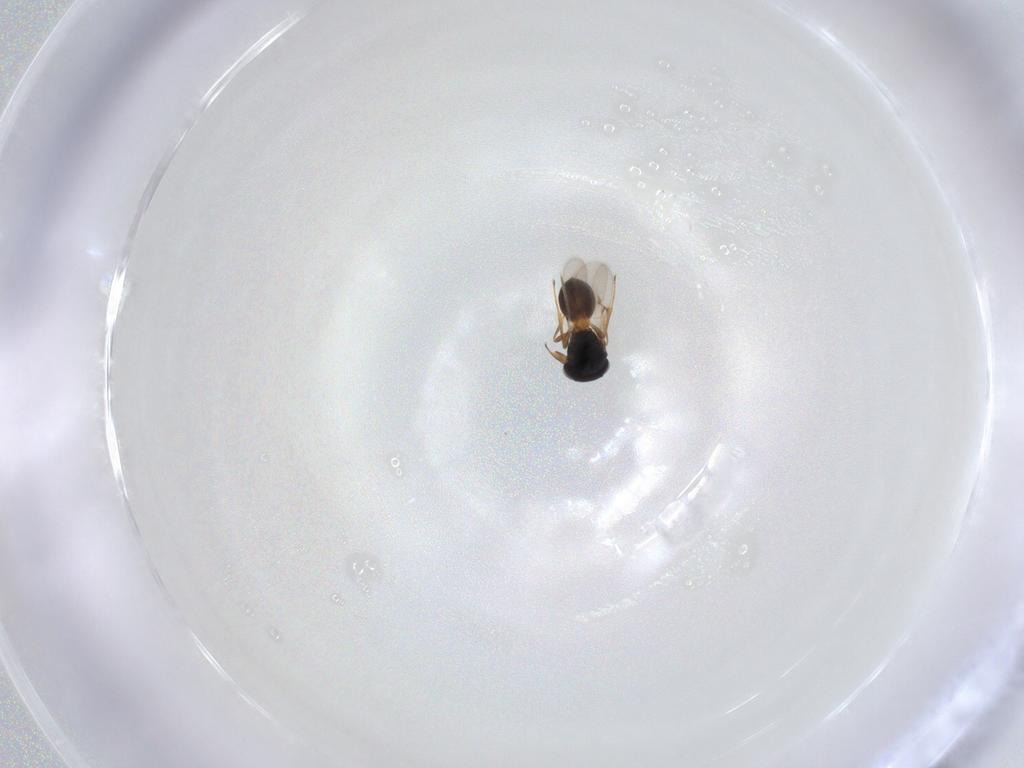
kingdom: Animalia
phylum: Arthropoda
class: Insecta
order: Hymenoptera
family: Scelionidae
